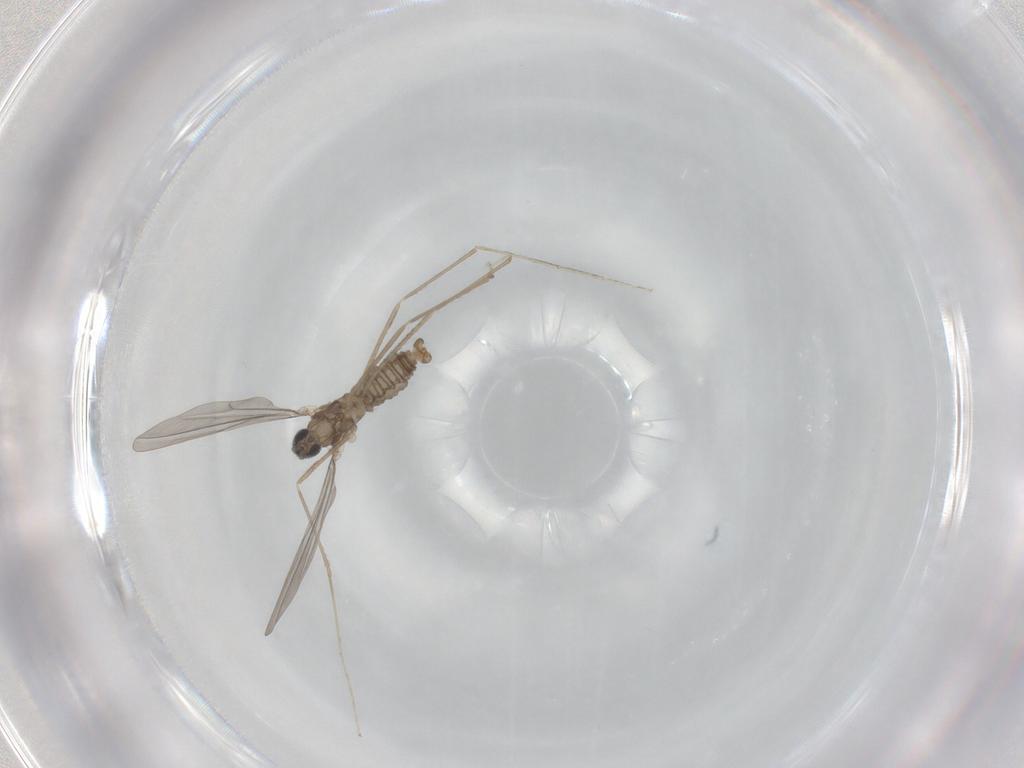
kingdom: Animalia
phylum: Arthropoda
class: Insecta
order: Diptera
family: Cecidomyiidae
